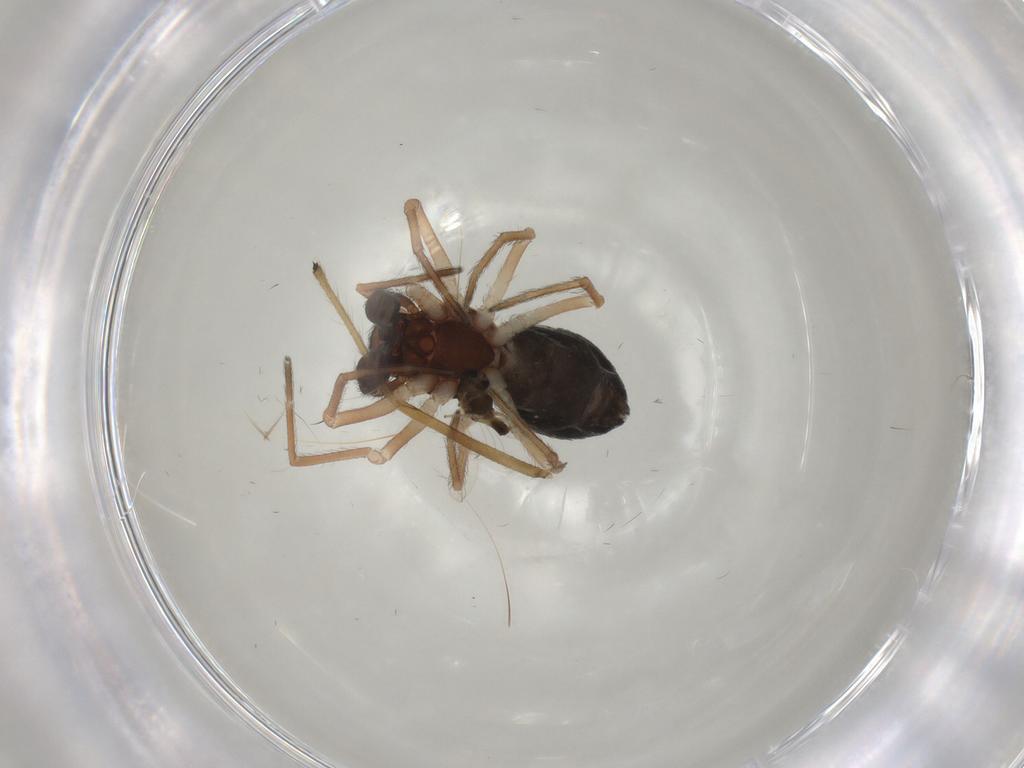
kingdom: Animalia
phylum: Arthropoda
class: Arachnida
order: Araneae
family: Dictynidae
